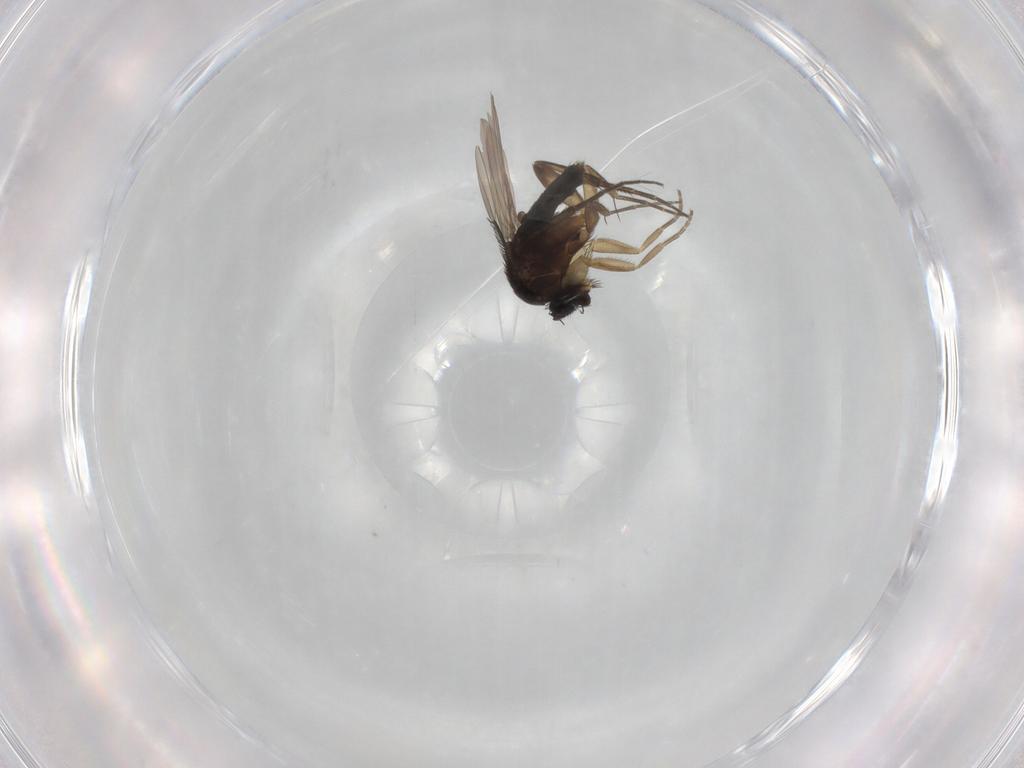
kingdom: Animalia
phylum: Arthropoda
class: Insecta
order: Diptera
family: Phoridae
